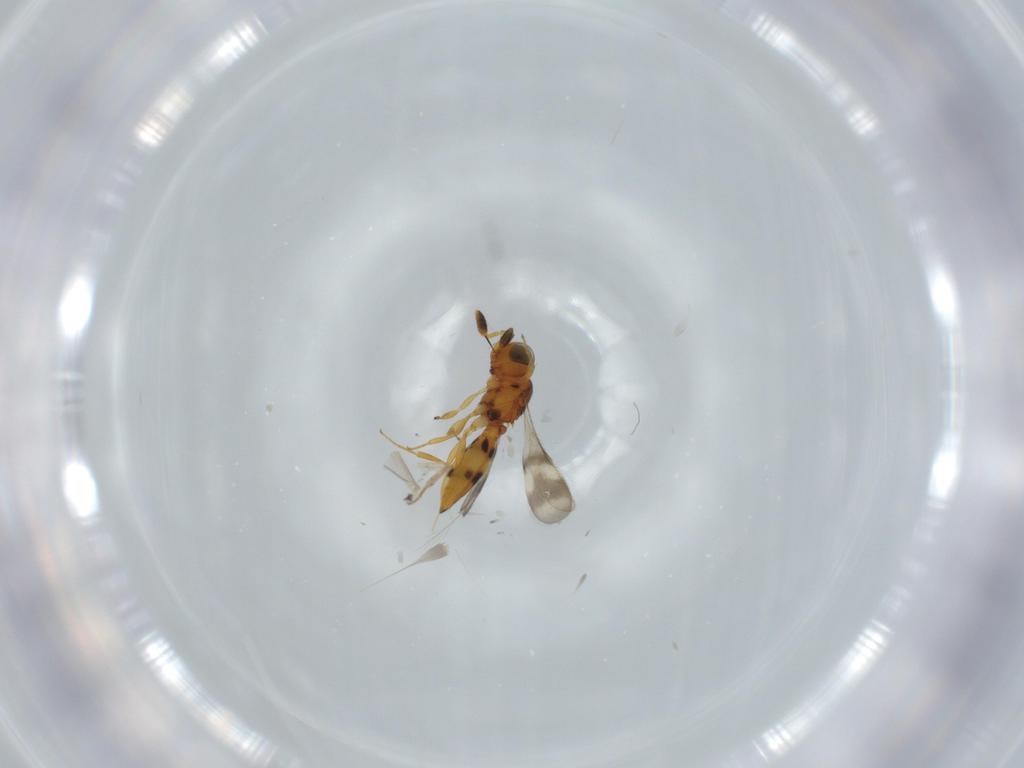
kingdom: Animalia
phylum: Arthropoda
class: Insecta
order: Hymenoptera
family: Scelionidae
